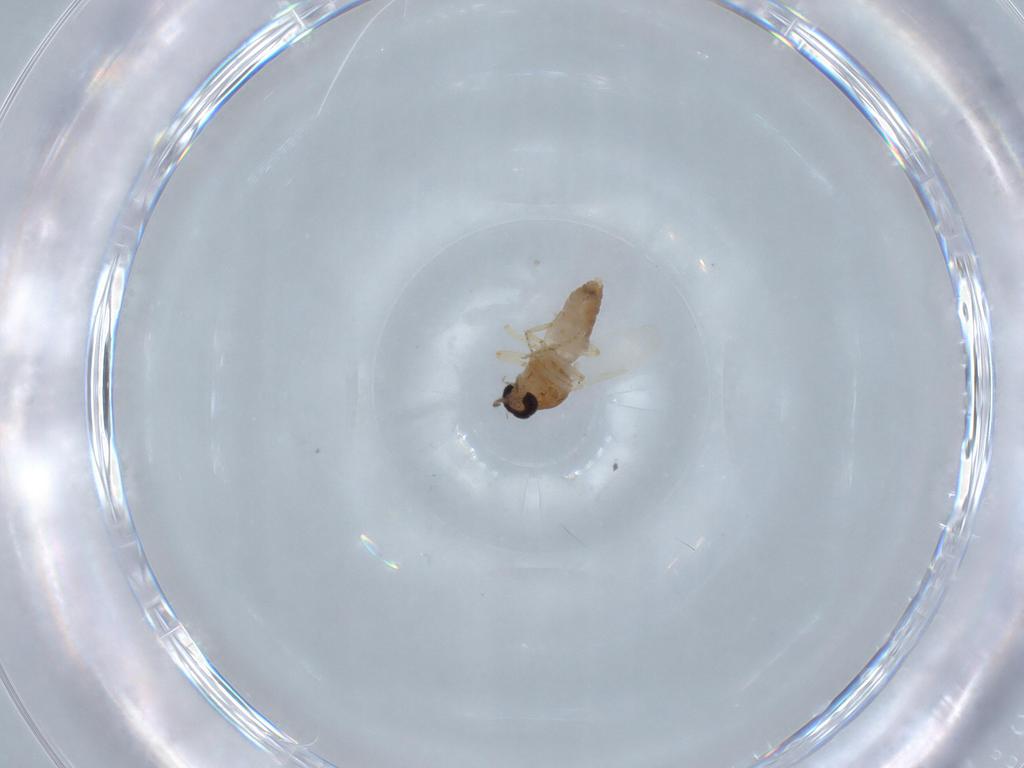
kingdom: Animalia
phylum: Arthropoda
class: Insecta
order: Diptera
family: Ceratopogonidae
